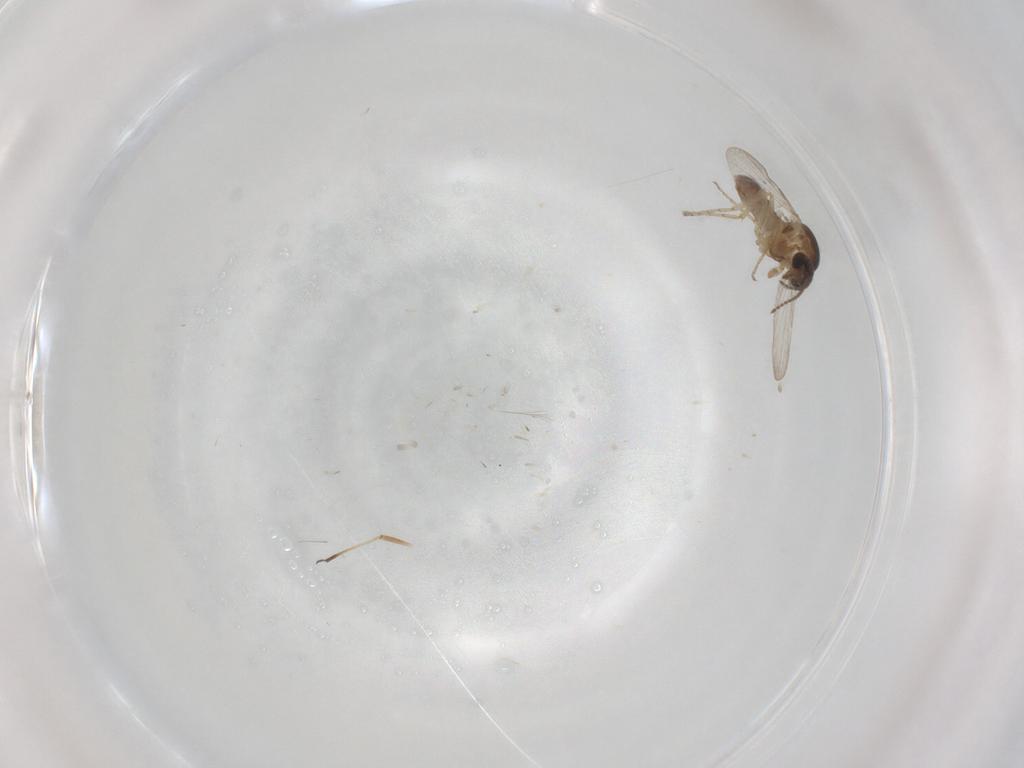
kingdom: Animalia
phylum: Arthropoda
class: Insecta
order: Diptera
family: Ceratopogonidae
